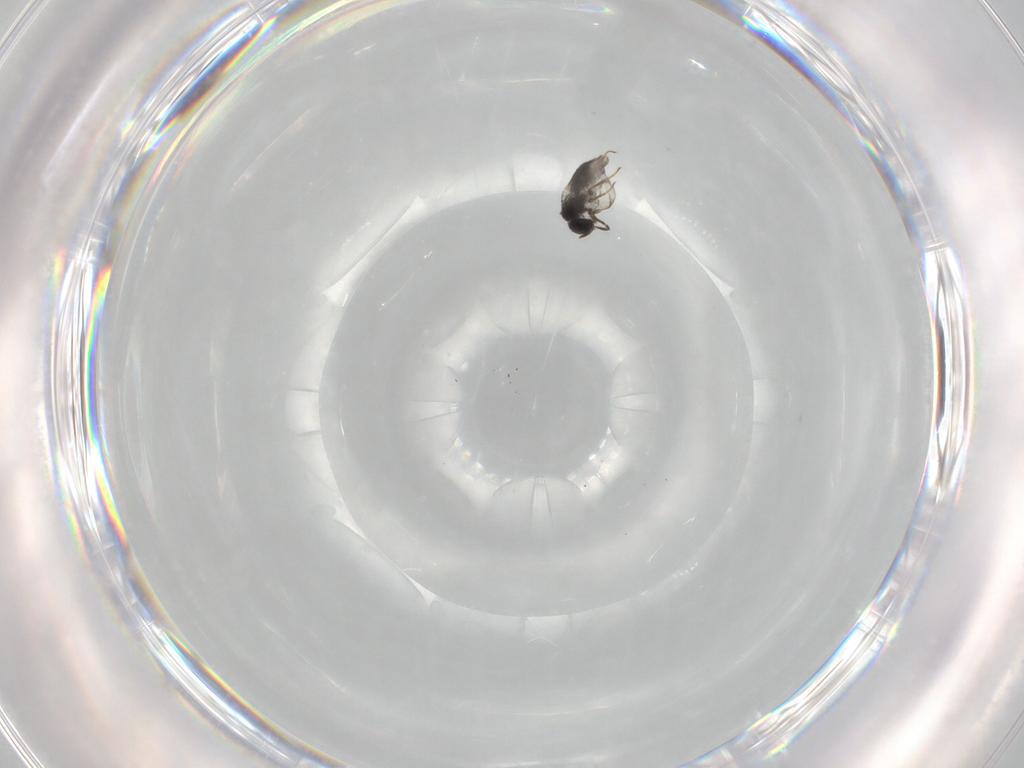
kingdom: Animalia
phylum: Arthropoda
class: Insecta
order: Hymenoptera
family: Scelionidae
